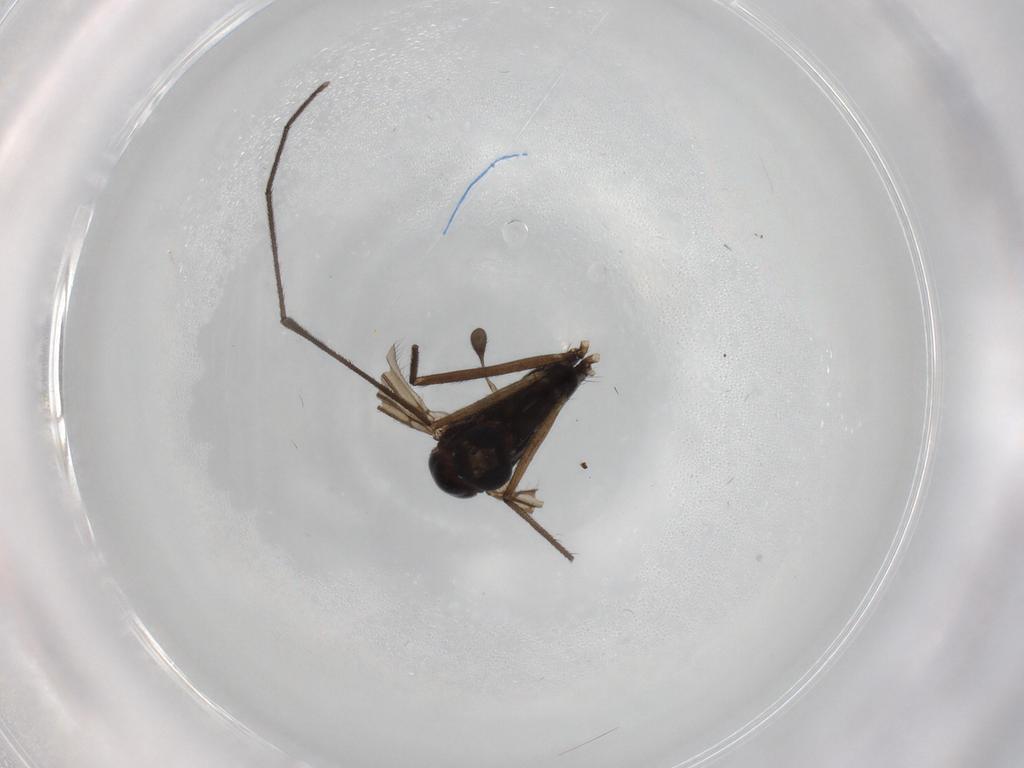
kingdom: Animalia
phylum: Arthropoda
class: Insecta
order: Diptera
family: Ditomyiidae
